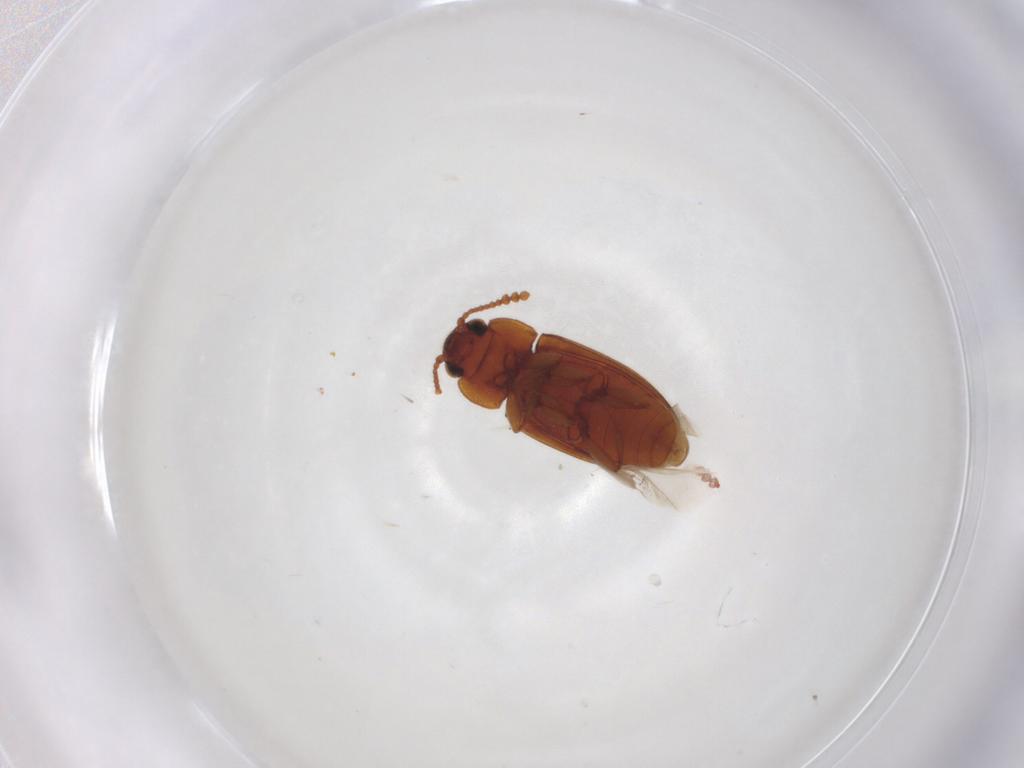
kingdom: Animalia
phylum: Arthropoda
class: Insecta
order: Coleoptera
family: Erotylidae
